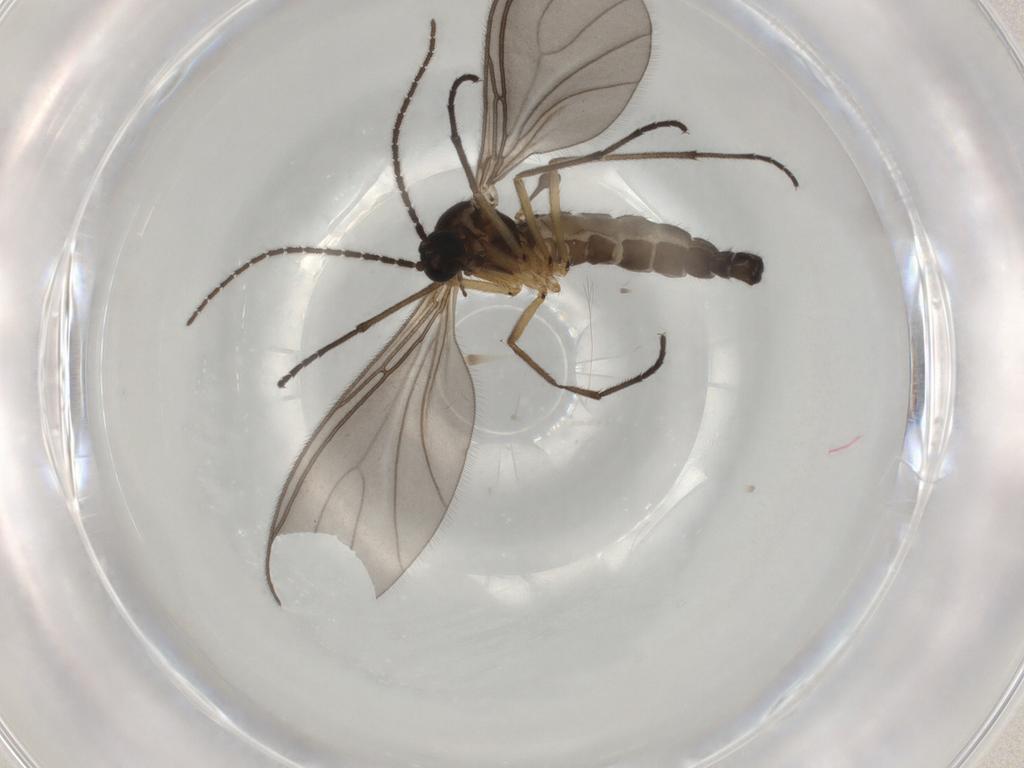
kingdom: Animalia
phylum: Arthropoda
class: Insecta
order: Diptera
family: Sciaridae
